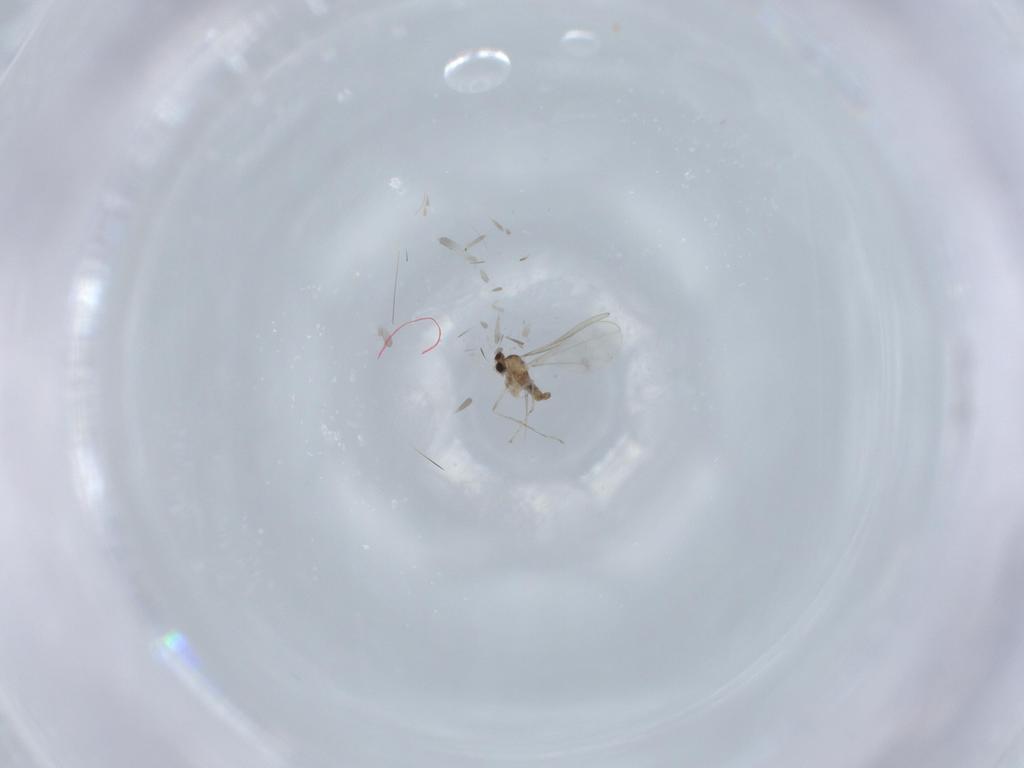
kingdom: Animalia
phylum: Arthropoda
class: Insecta
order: Diptera
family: Cecidomyiidae
